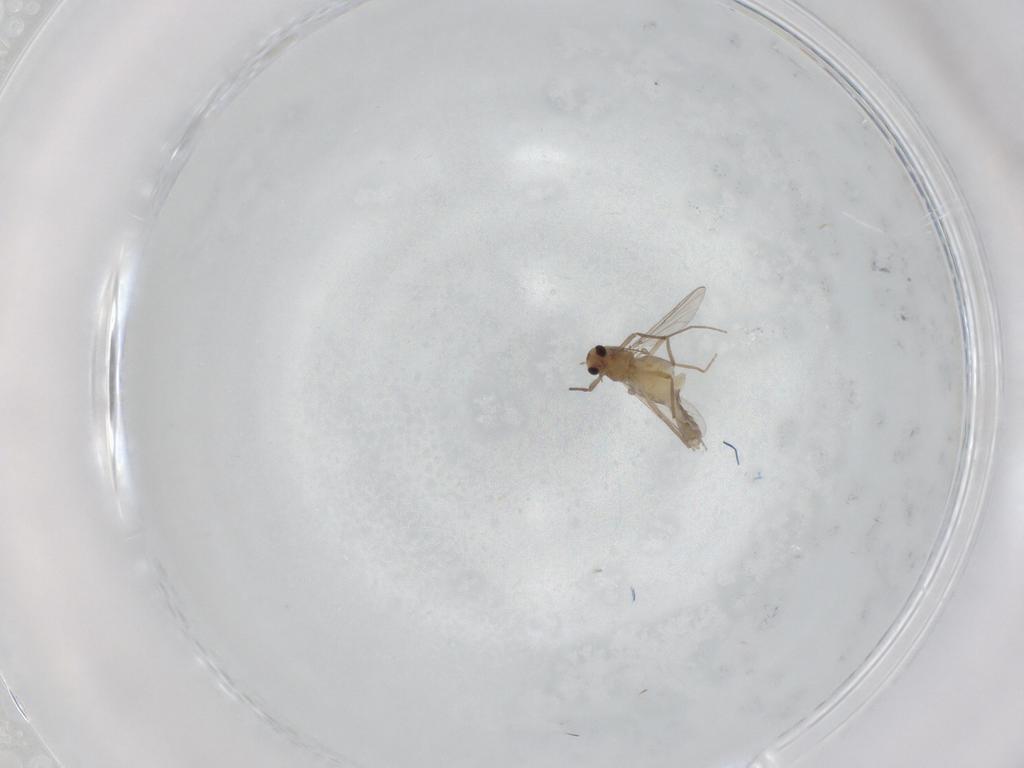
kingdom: Animalia
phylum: Arthropoda
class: Insecta
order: Diptera
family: Chironomidae
